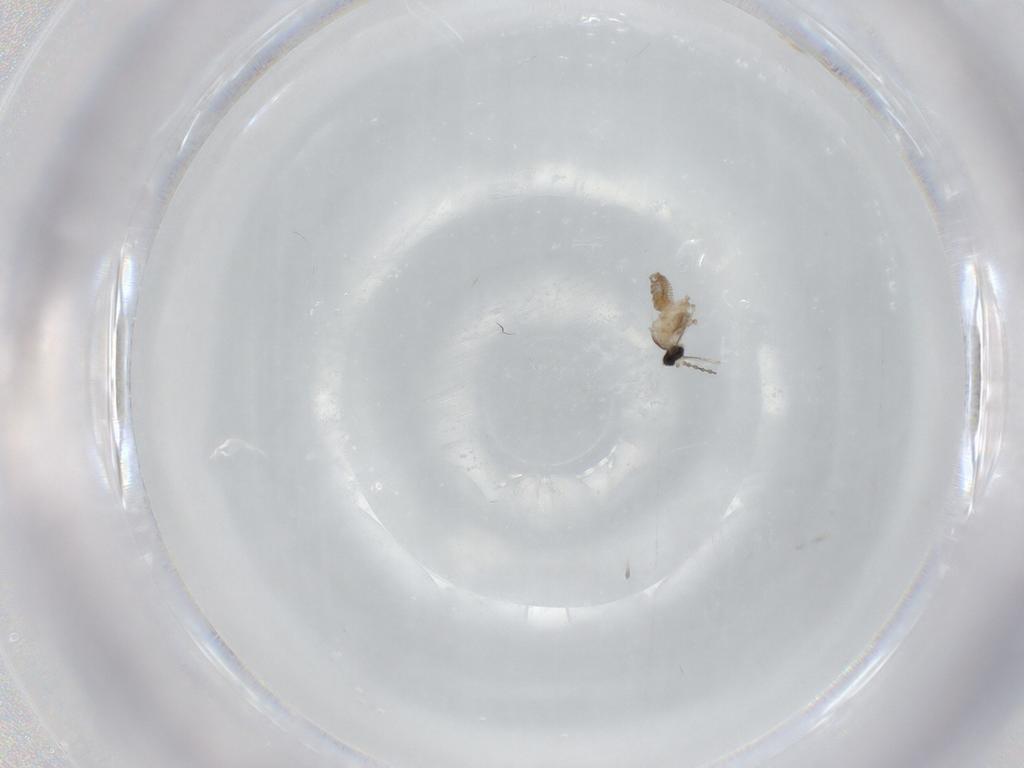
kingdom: Animalia
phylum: Arthropoda
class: Insecta
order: Diptera
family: Cecidomyiidae
